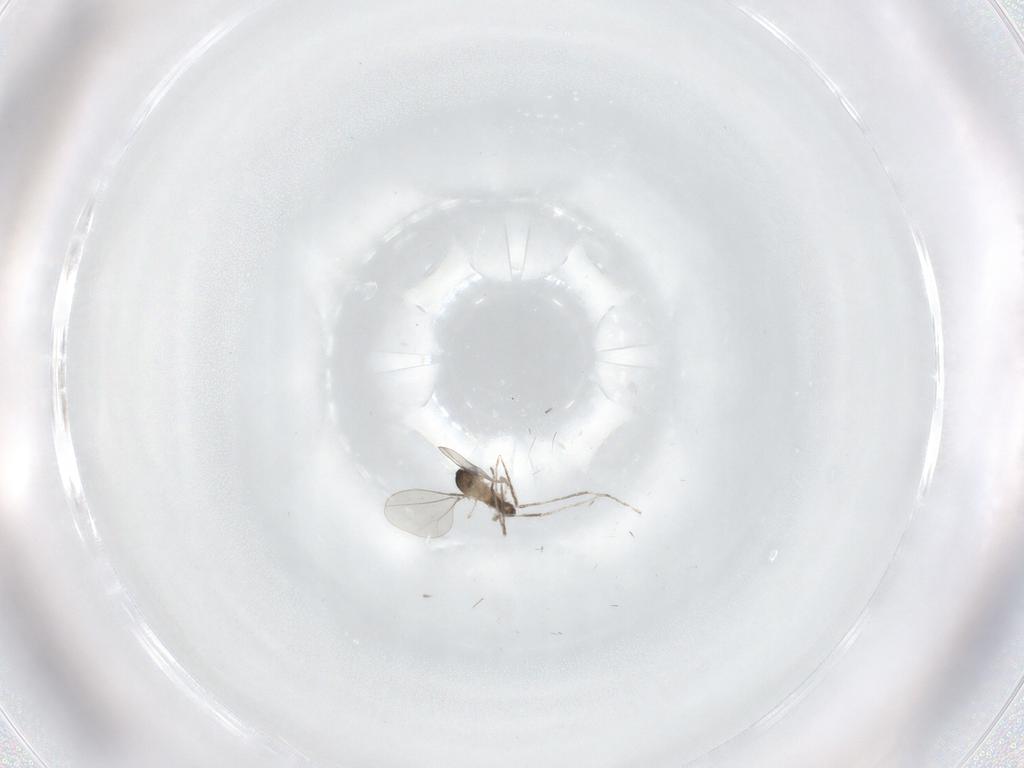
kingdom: Animalia
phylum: Arthropoda
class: Insecta
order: Diptera
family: Cecidomyiidae
